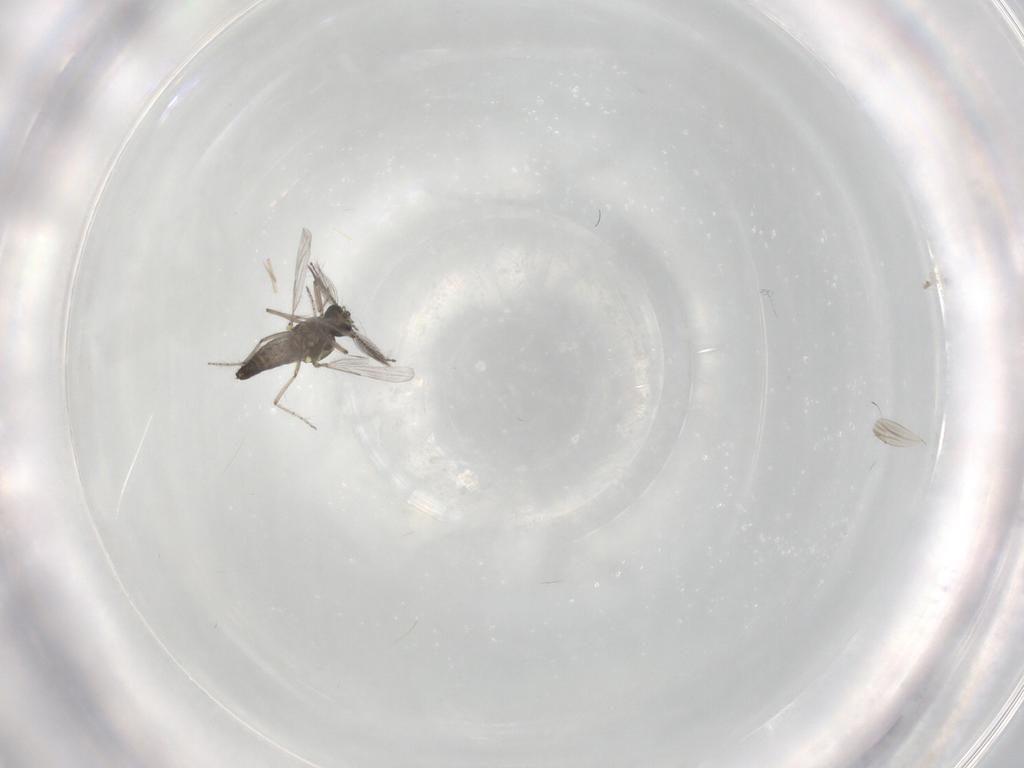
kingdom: Animalia
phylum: Arthropoda
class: Insecta
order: Diptera
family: Ceratopogonidae
